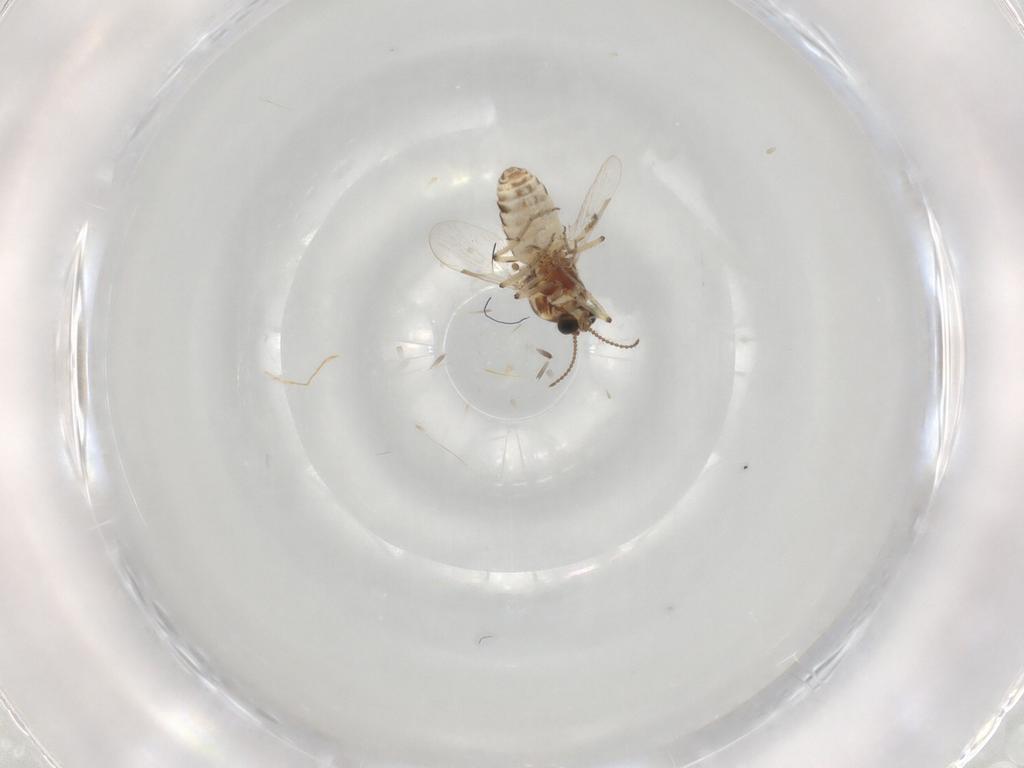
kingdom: Animalia
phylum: Arthropoda
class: Insecta
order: Diptera
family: Ceratopogonidae
